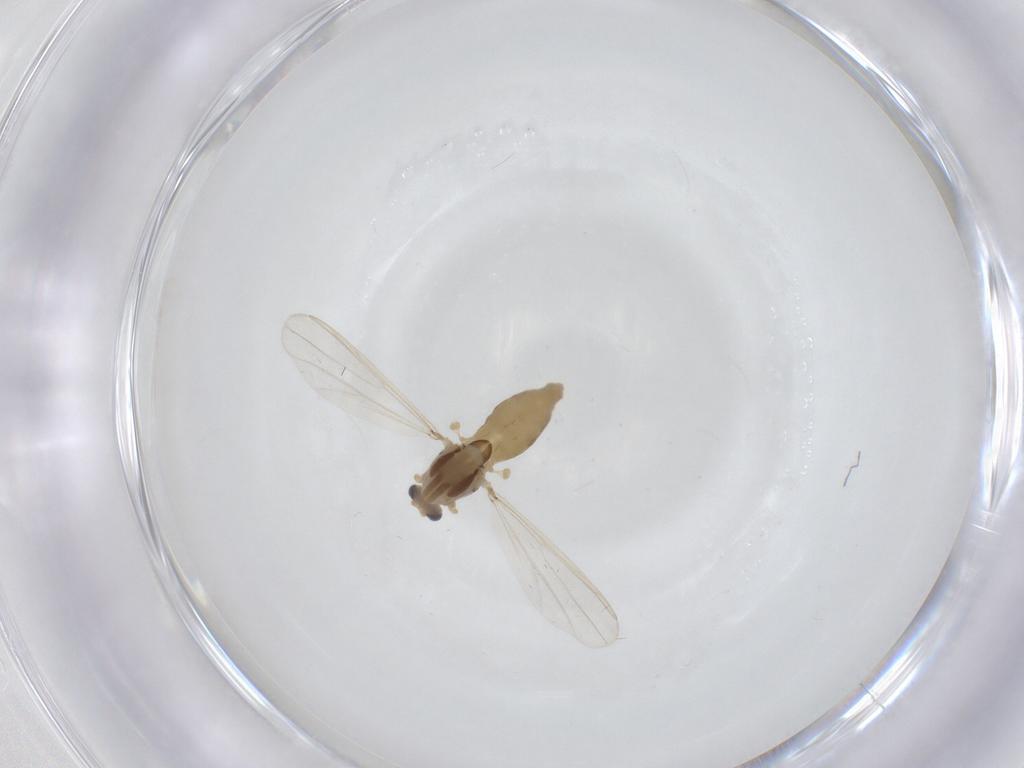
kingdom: Animalia
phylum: Arthropoda
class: Insecta
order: Diptera
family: Chironomidae
